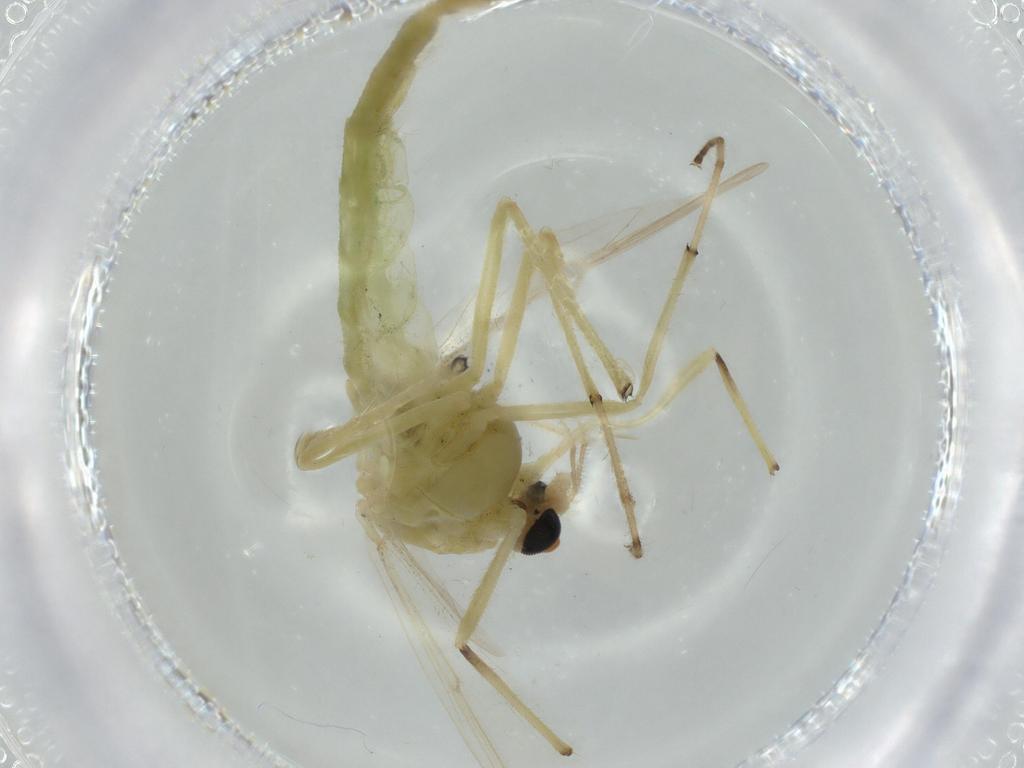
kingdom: Animalia
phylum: Arthropoda
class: Insecta
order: Diptera
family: Chironomidae
